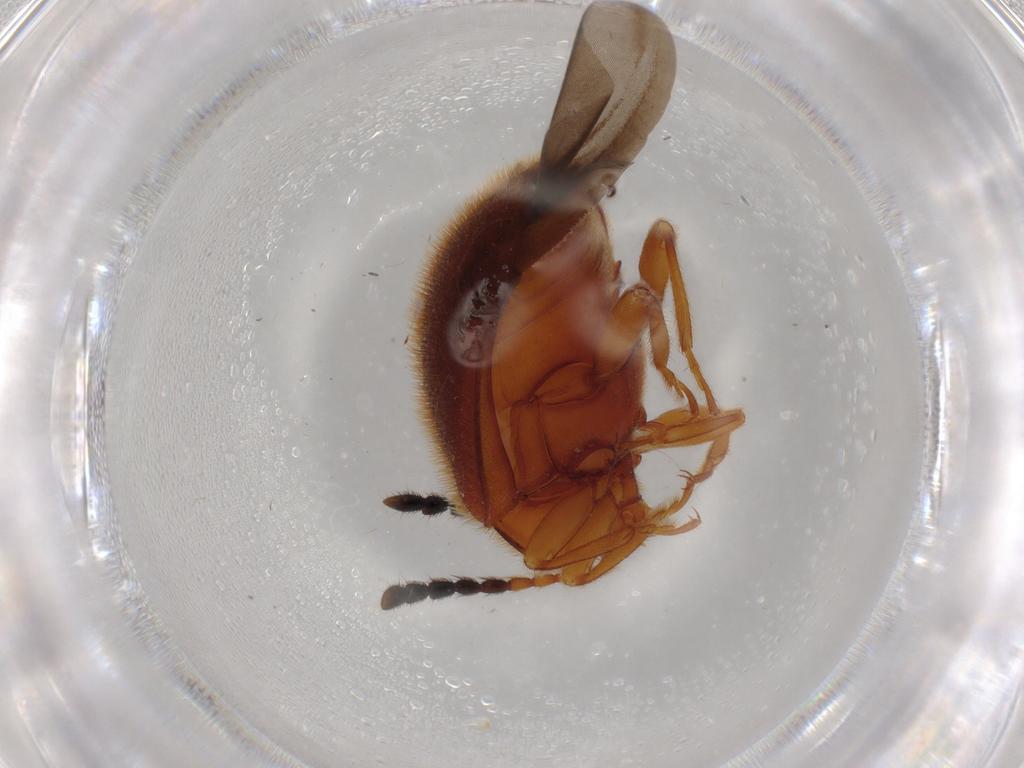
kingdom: Animalia
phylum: Arthropoda
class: Insecta
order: Coleoptera
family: Endomychidae
